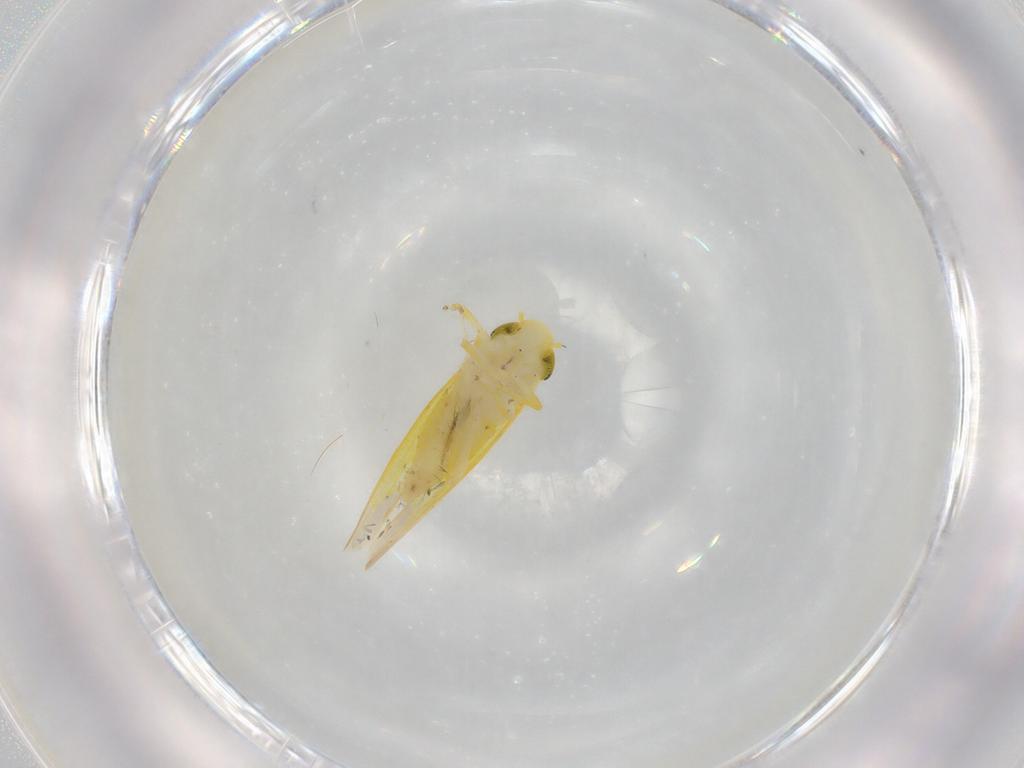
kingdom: Animalia
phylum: Arthropoda
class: Insecta
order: Hemiptera
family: Cicadellidae
